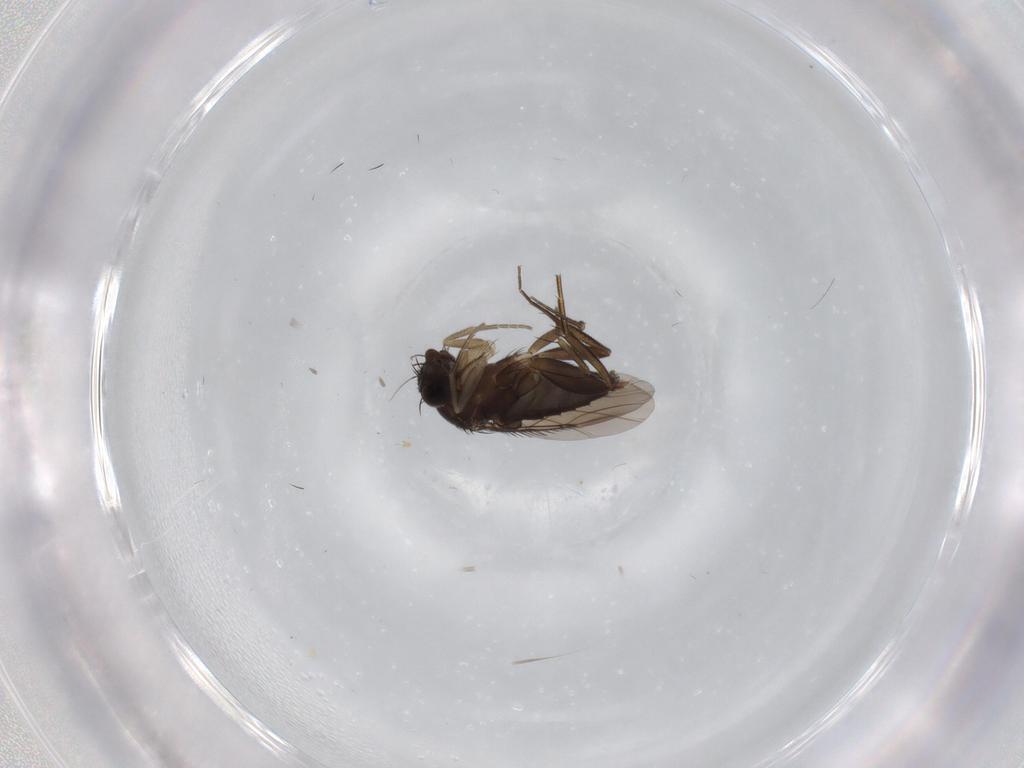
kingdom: Animalia
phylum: Arthropoda
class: Insecta
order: Diptera
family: Phoridae
